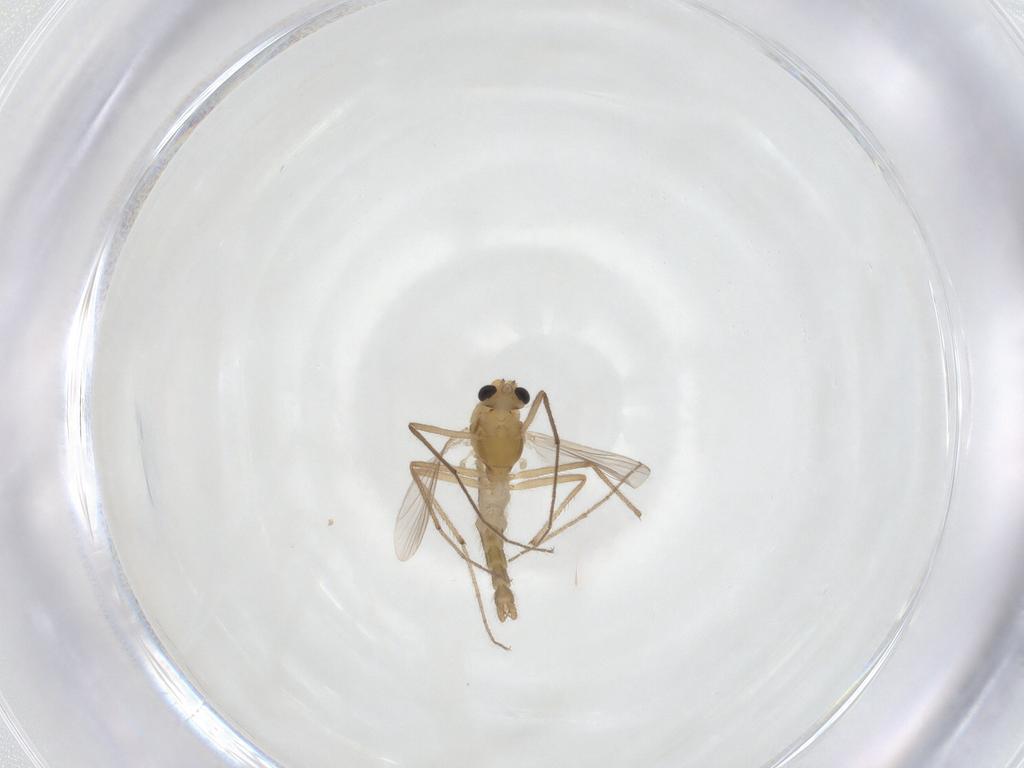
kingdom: Animalia
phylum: Arthropoda
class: Insecta
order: Diptera
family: Chironomidae
